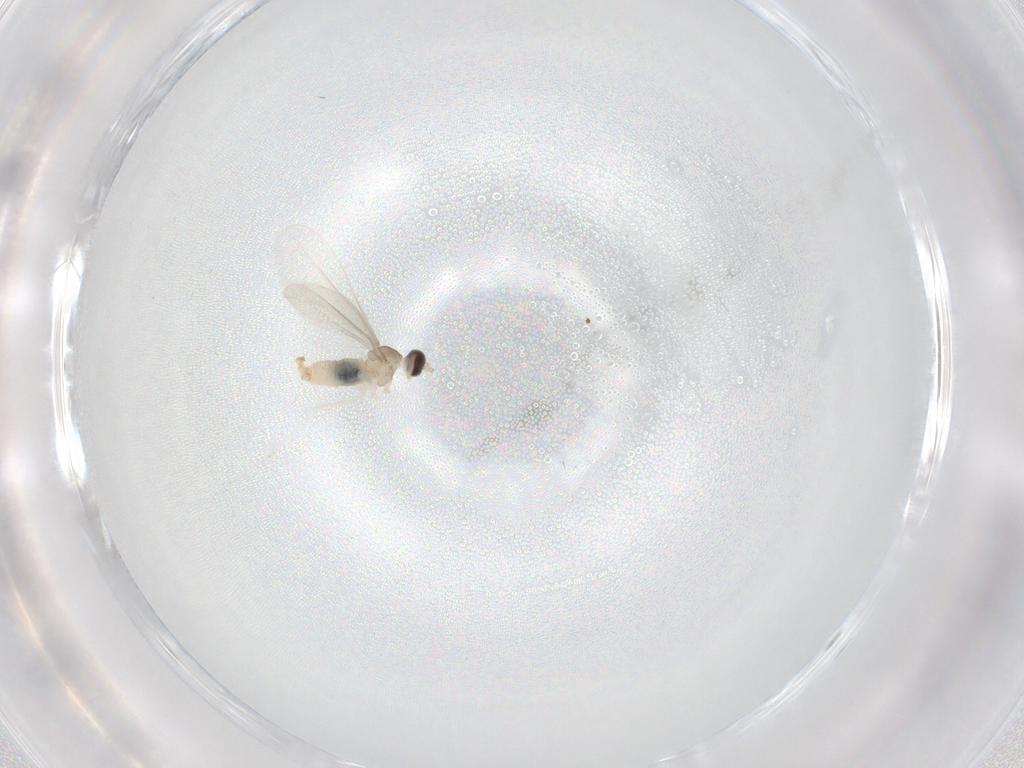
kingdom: Animalia
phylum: Arthropoda
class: Insecta
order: Diptera
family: Cecidomyiidae
